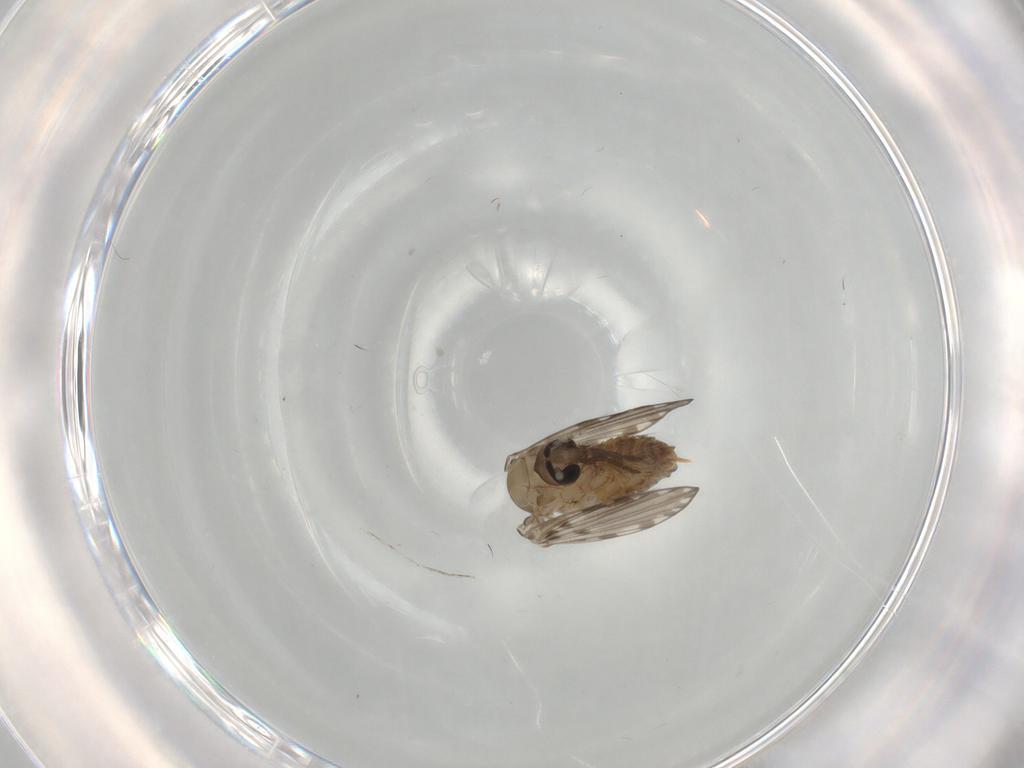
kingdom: Animalia
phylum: Arthropoda
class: Insecta
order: Diptera
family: Psychodidae
